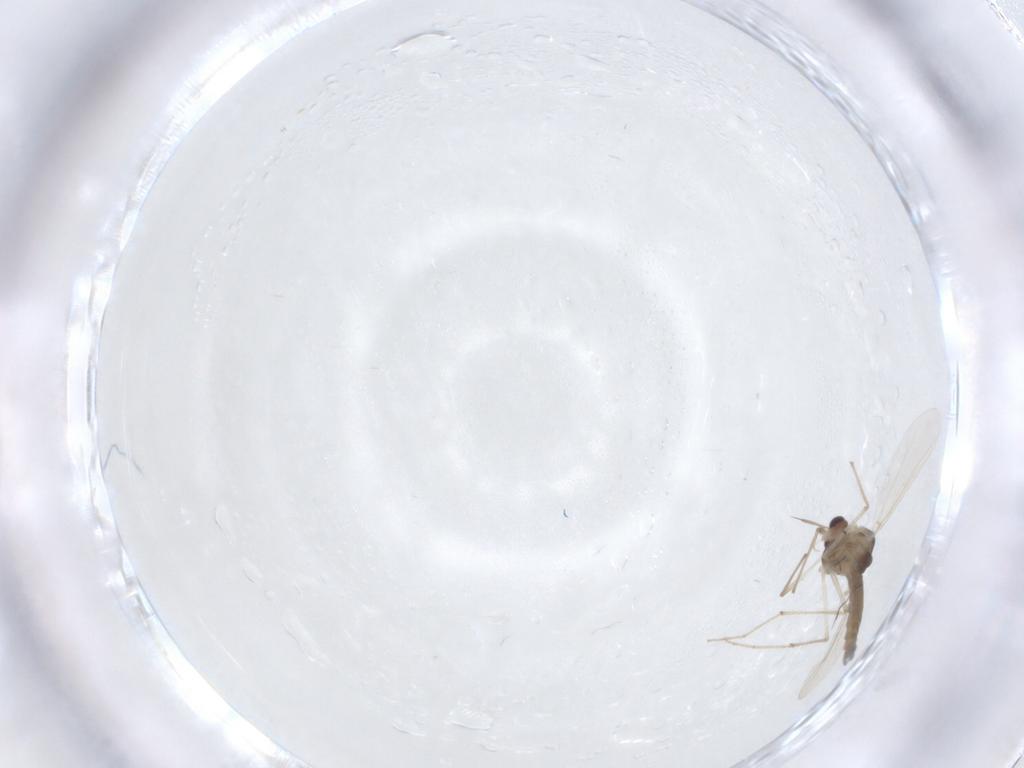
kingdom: Animalia
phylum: Arthropoda
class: Insecta
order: Diptera
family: Chironomidae
